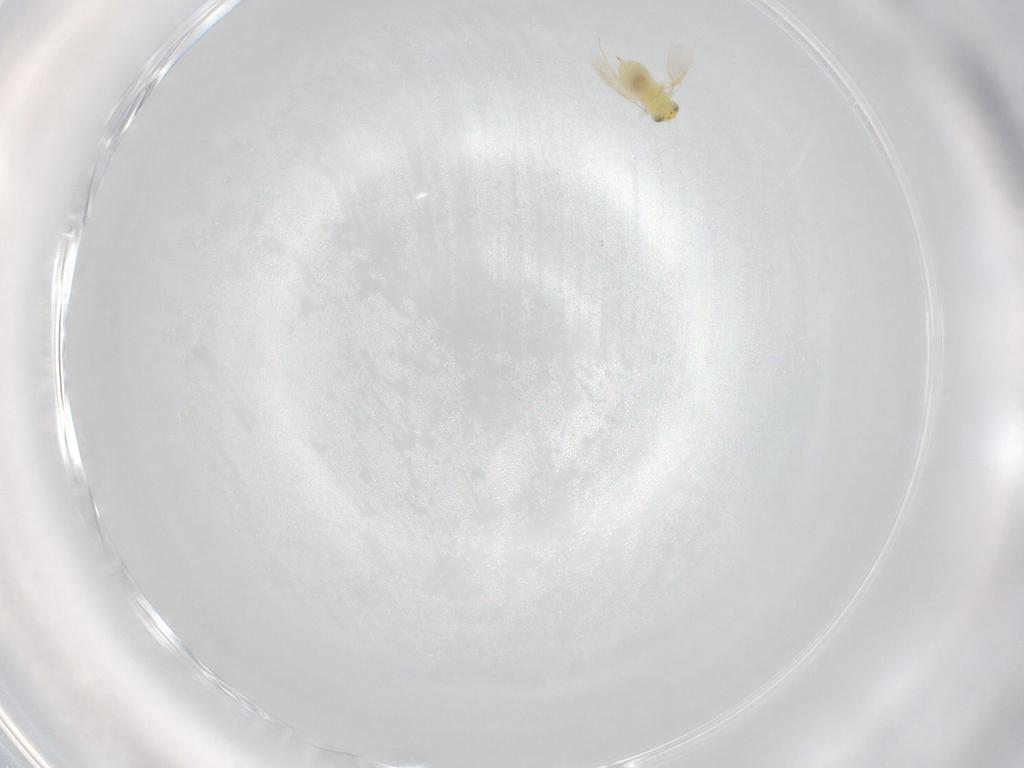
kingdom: Animalia
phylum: Arthropoda
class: Insecta
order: Hymenoptera
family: Aphelinidae
